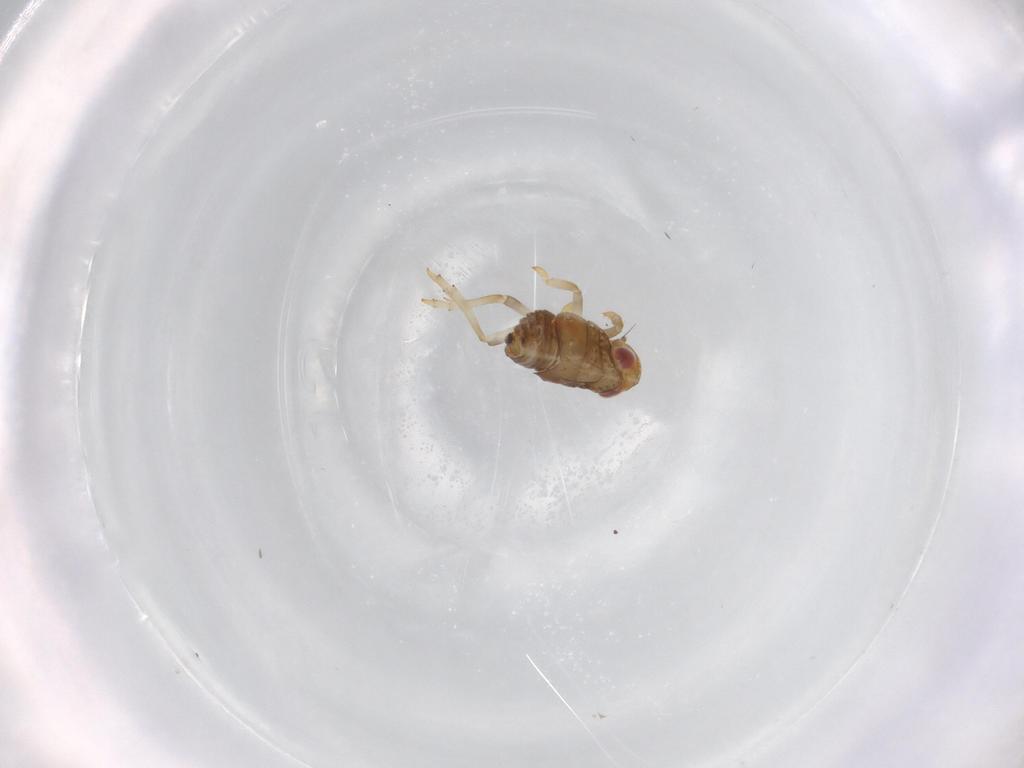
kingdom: Animalia
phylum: Arthropoda
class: Insecta
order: Hemiptera
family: Issidae
